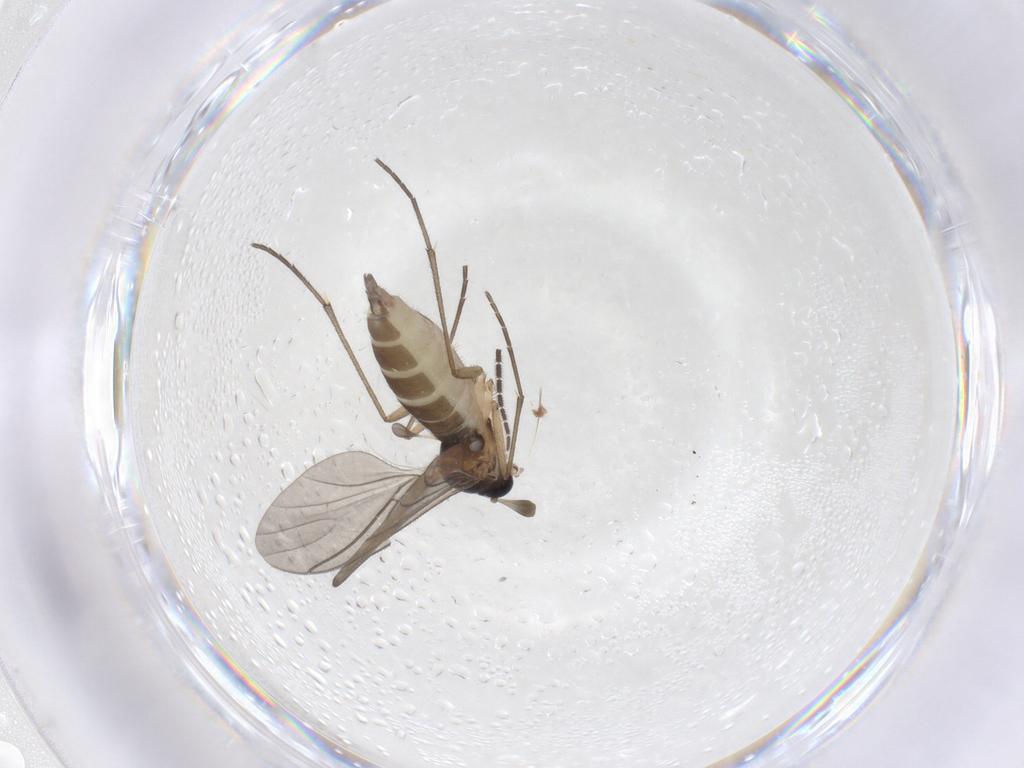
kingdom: Animalia
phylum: Arthropoda
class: Insecta
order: Diptera
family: Sciaridae
